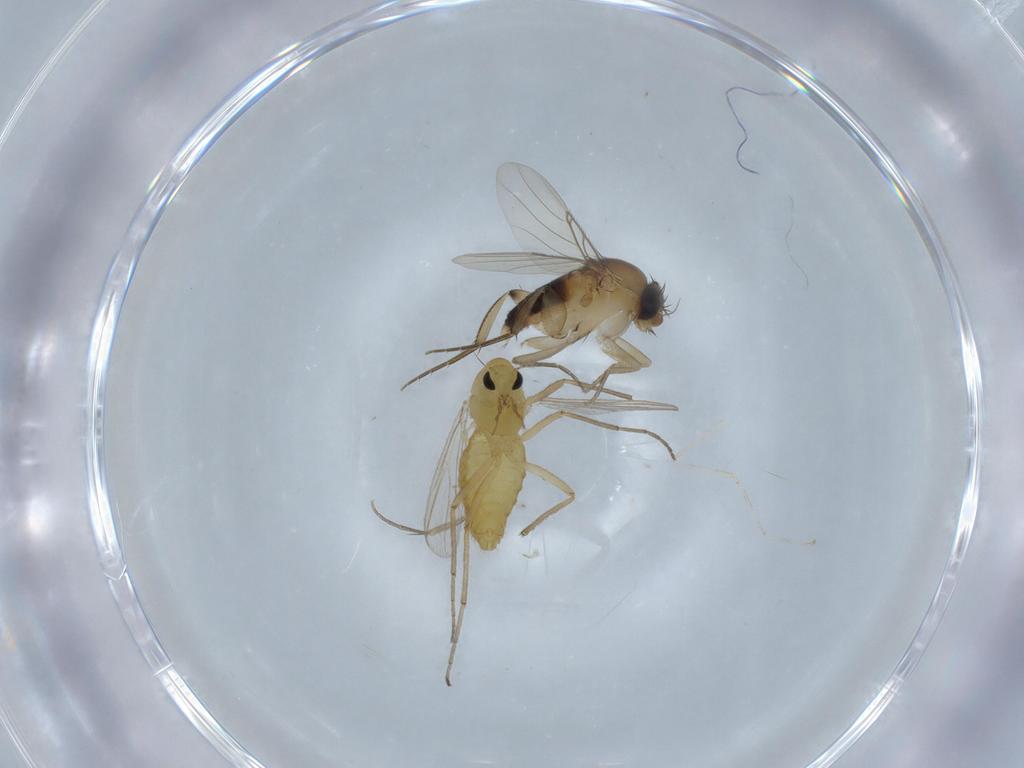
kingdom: Animalia
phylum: Arthropoda
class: Insecta
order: Diptera
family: Chironomidae
